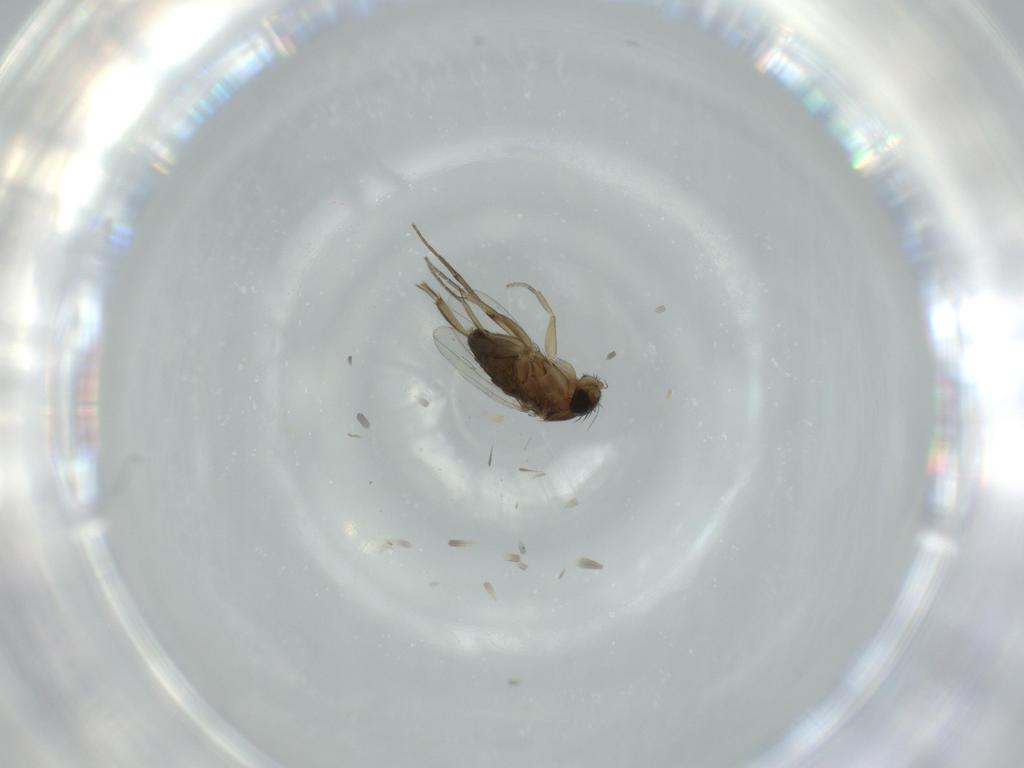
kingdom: Animalia
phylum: Arthropoda
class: Insecta
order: Diptera
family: Phoridae
